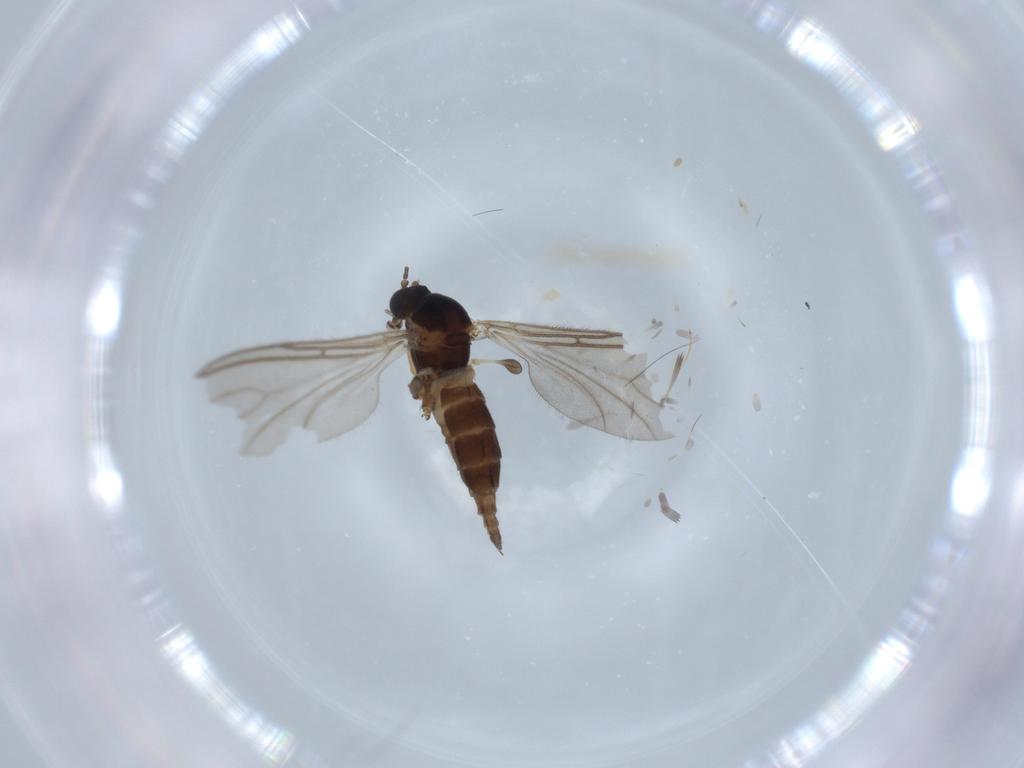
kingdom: Animalia
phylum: Arthropoda
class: Insecta
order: Diptera
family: Sciaridae
